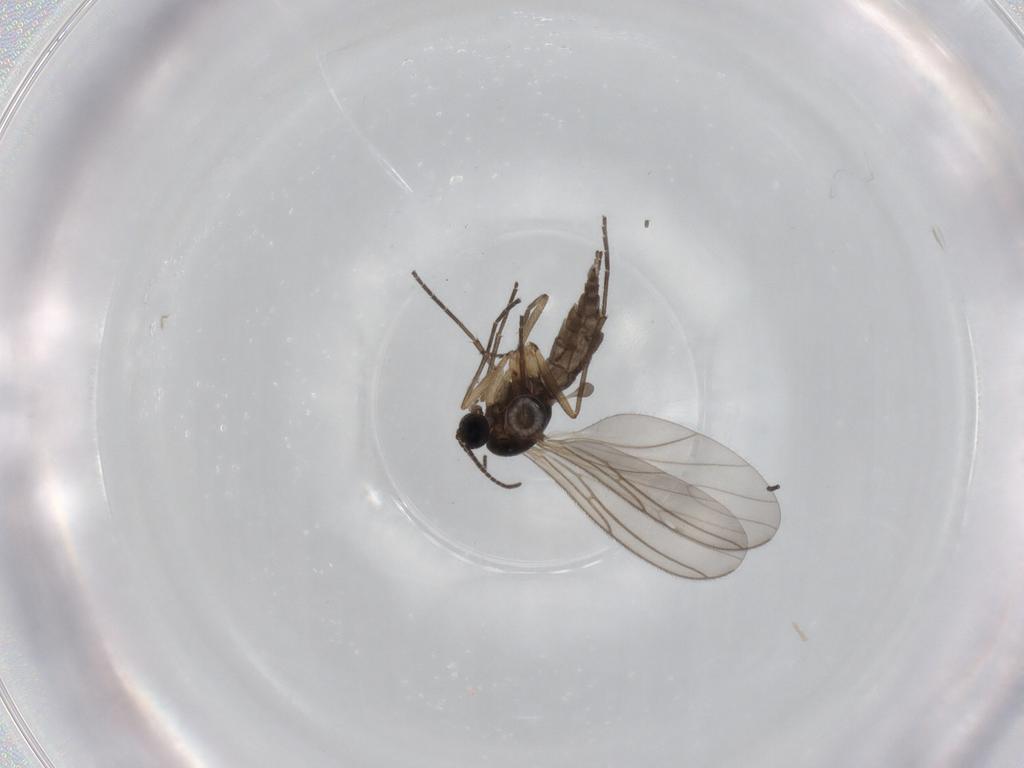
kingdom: Animalia
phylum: Arthropoda
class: Insecta
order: Diptera
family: Sciaridae
